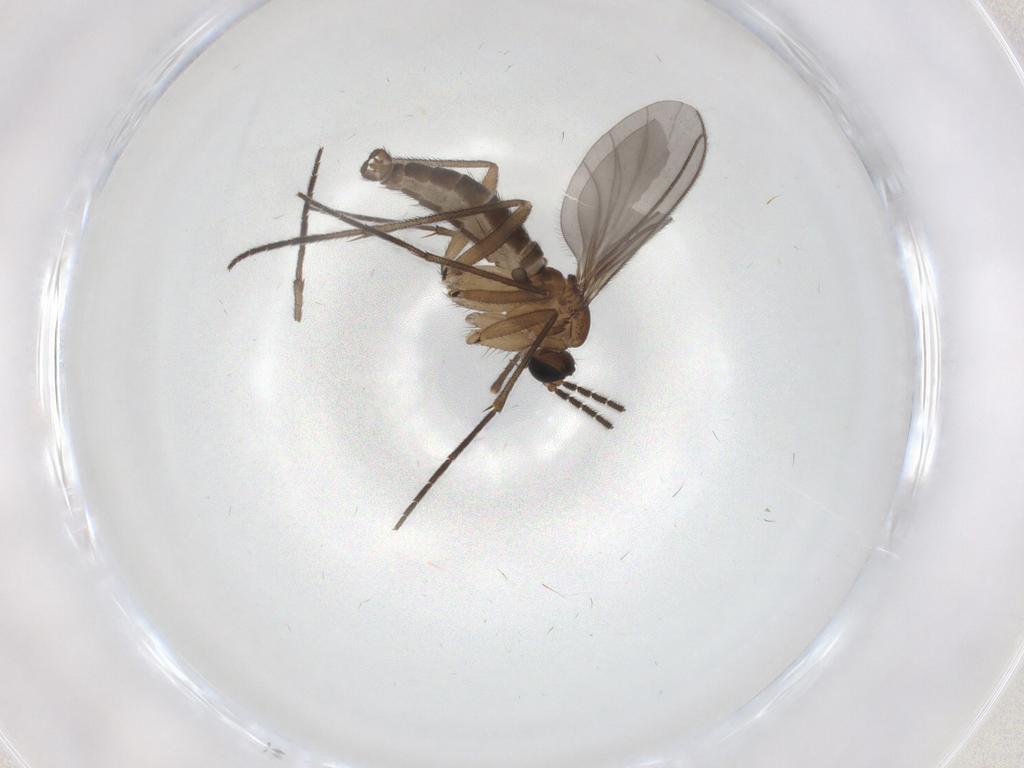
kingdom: Animalia
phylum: Arthropoda
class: Insecta
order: Diptera
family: Sciaridae
